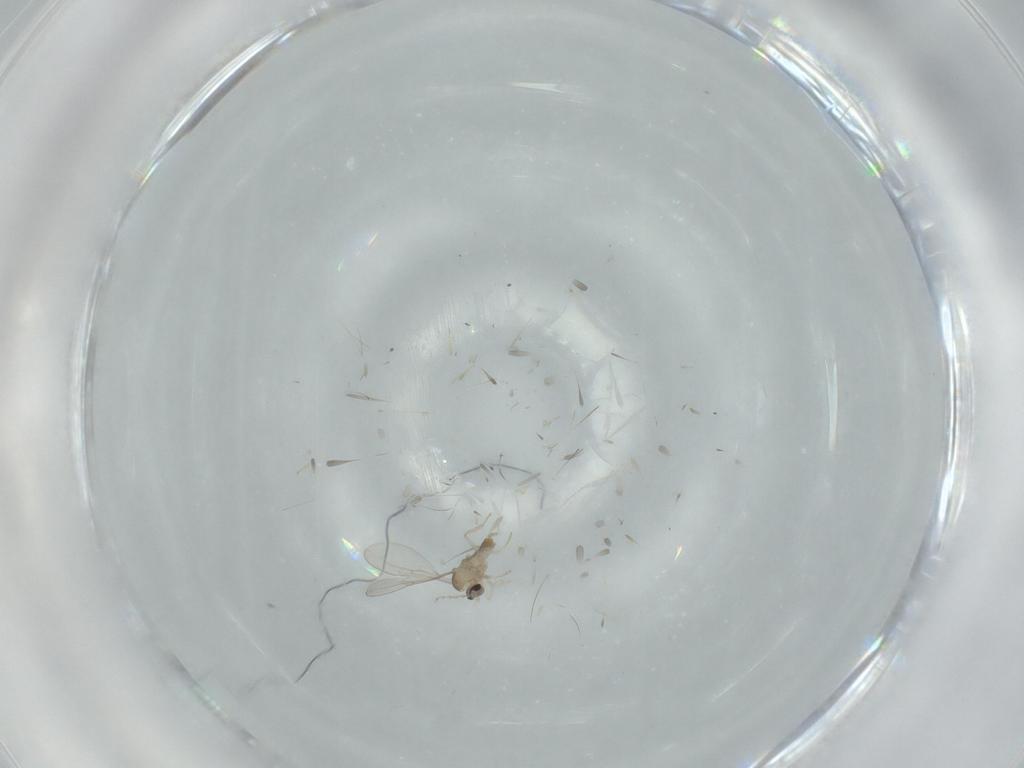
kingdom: Animalia
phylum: Arthropoda
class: Insecta
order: Diptera
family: Cecidomyiidae
